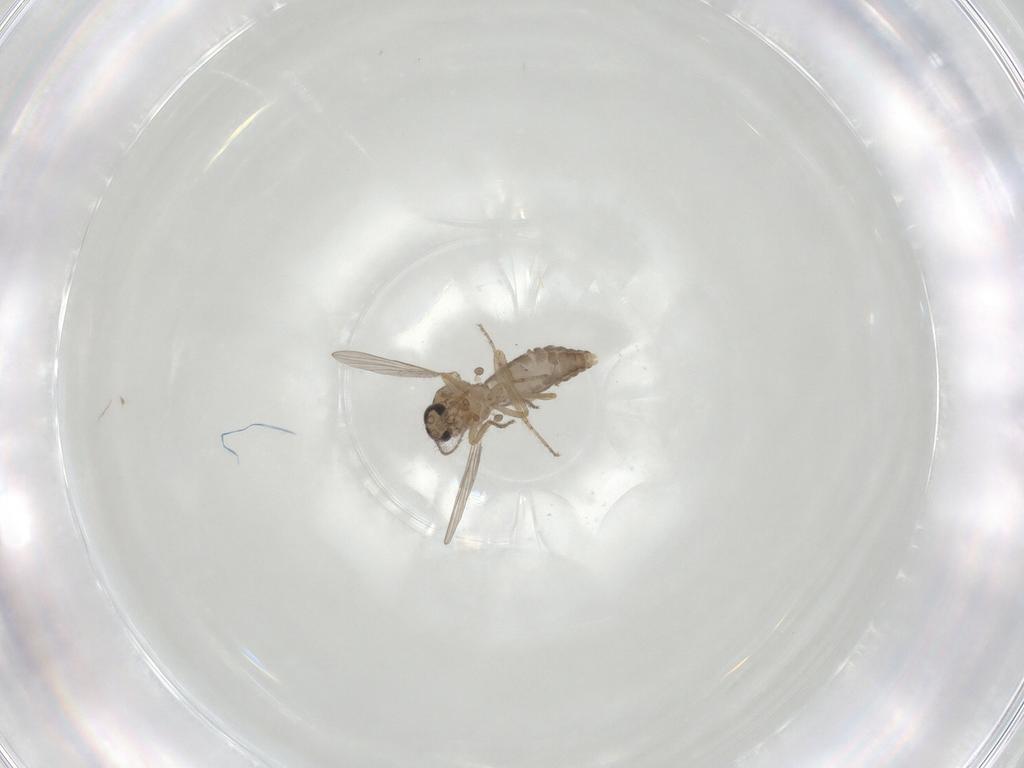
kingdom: Animalia
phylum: Arthropoda
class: Insecta
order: Diptera
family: Ceratopogonidae
